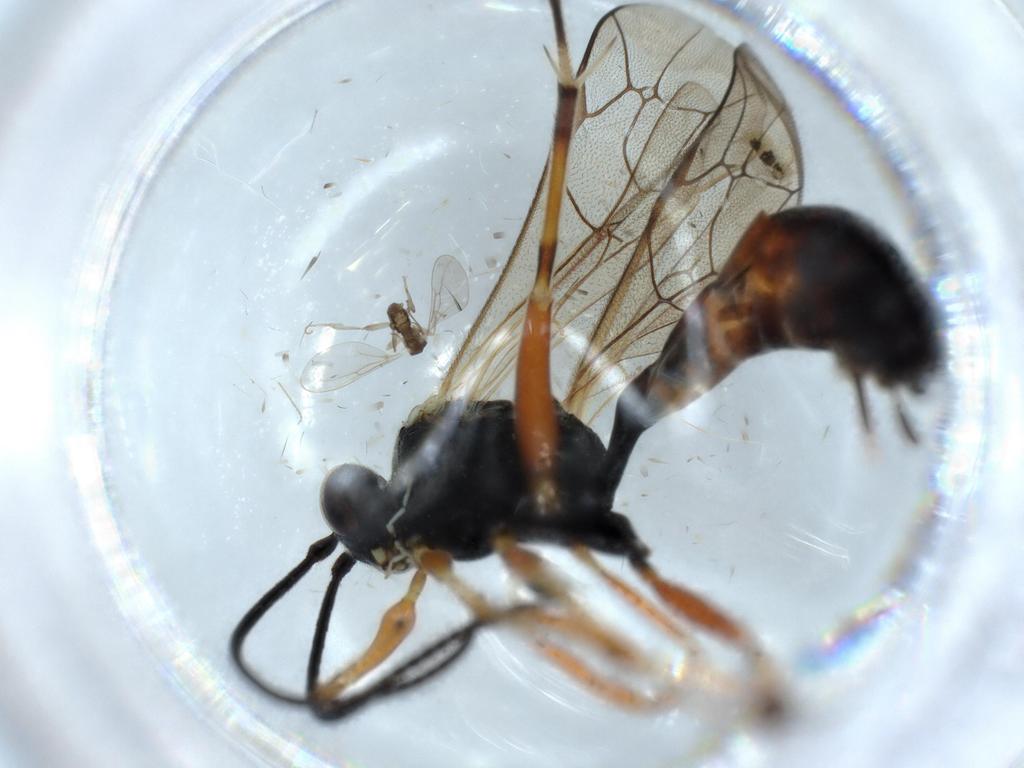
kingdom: Animalia
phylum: Arthropoda
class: Insecta
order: Hymenoptera
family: Ichneumonidae
